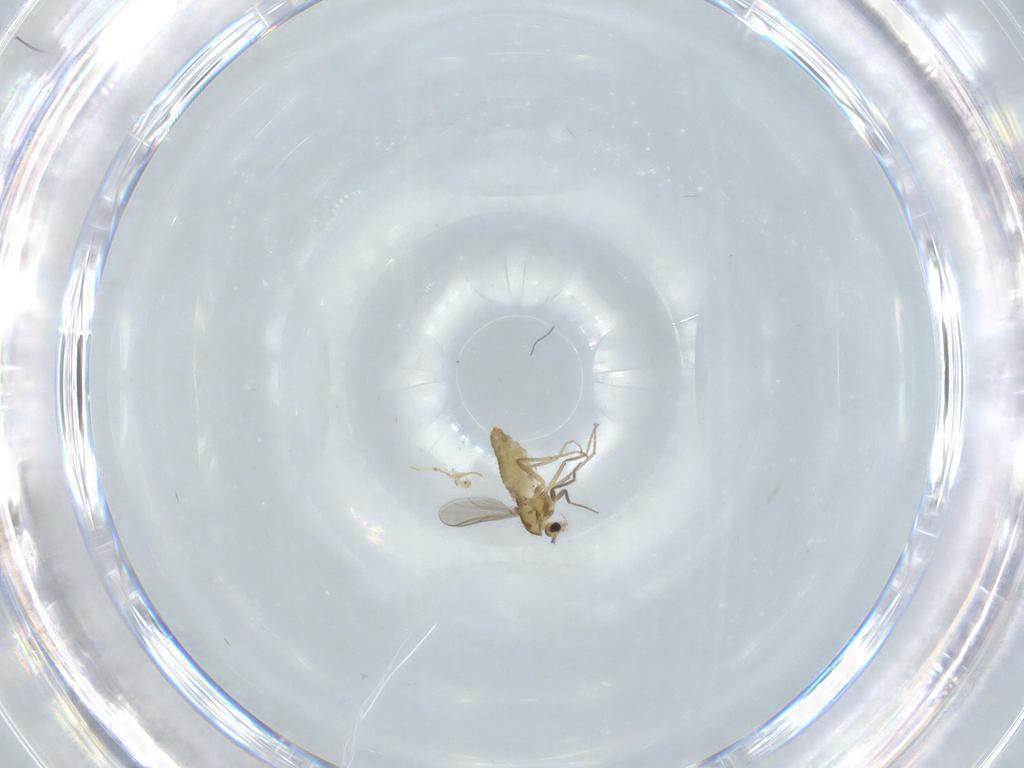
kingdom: Animalia
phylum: Arthropoda
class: Insecta
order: Diptera
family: Chironomidae
